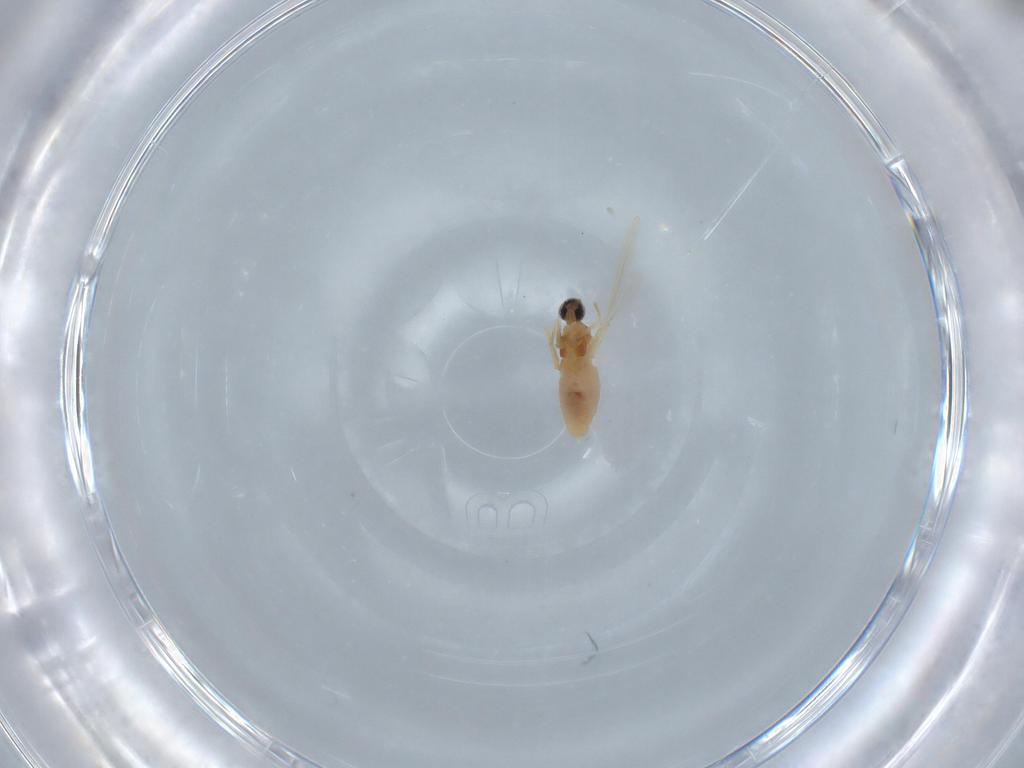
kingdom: Animalia
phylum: Arthropoda
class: Insecta
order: Diptera
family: Cecidomyiidae
